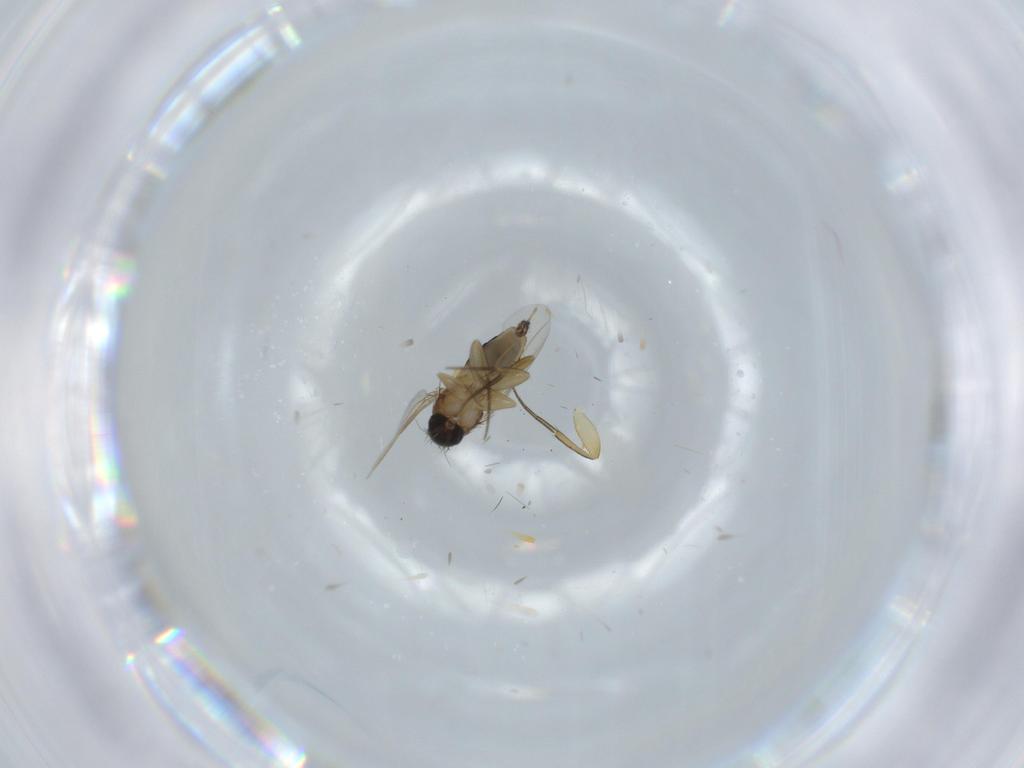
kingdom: Animalia
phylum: Arthropoda
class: Insecta
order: Diptera
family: Phoridae
